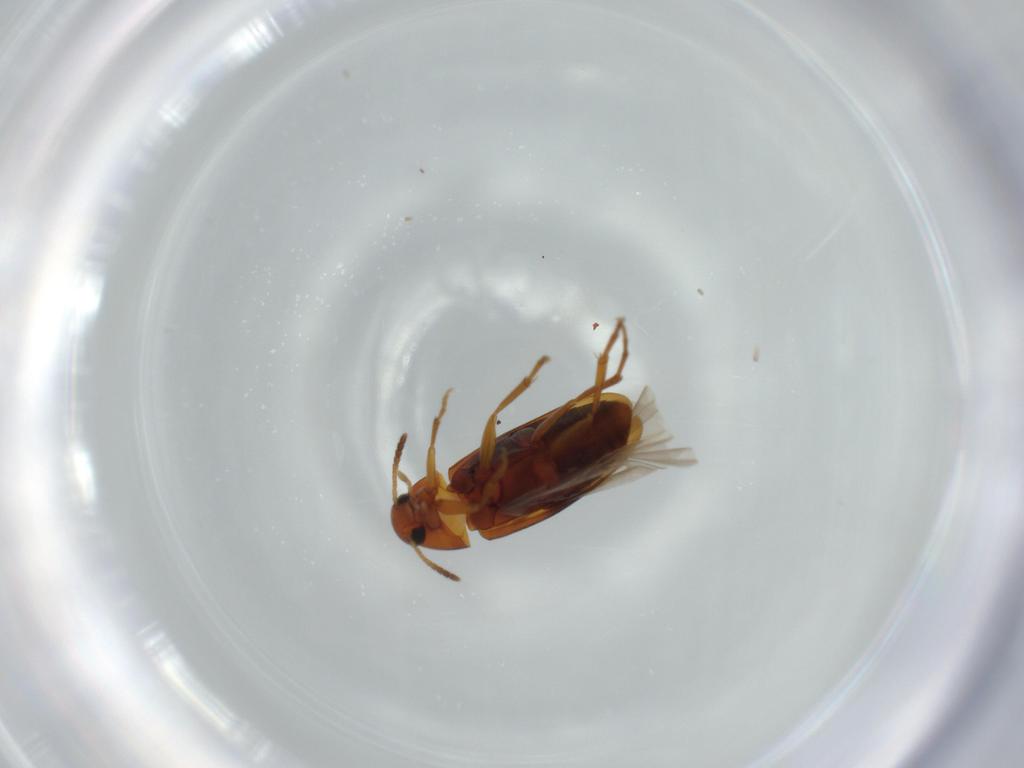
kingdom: Animalia
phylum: Arthropoda
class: Insecta
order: Coleoptera
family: Scraptiidae
